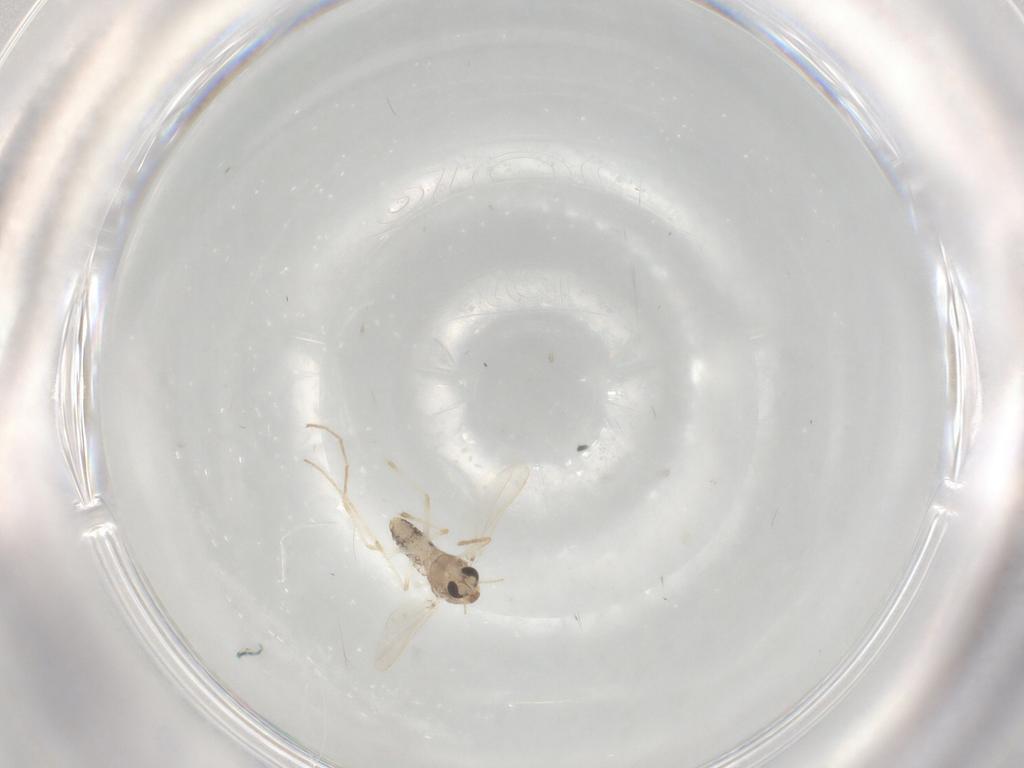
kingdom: Animalia
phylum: Arthropoda
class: Insecta
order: Diptera
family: Chironomidae
